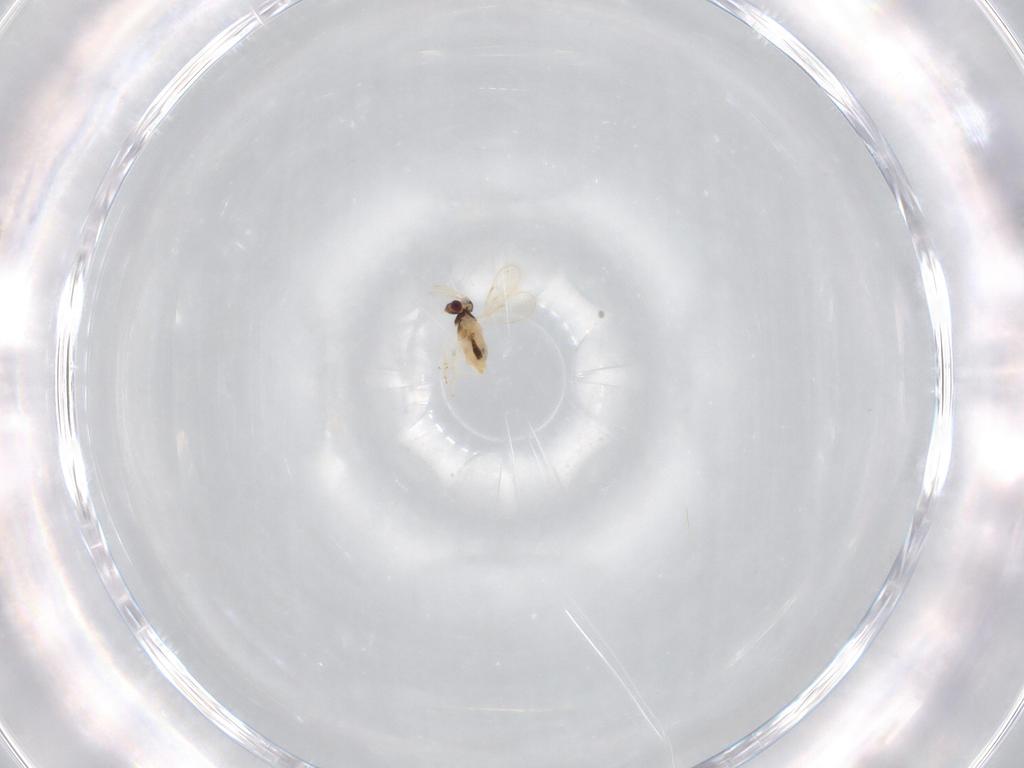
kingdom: Animalia
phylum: Arthropoda
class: Insecta
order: Hymenoptera
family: Aphelinidae
